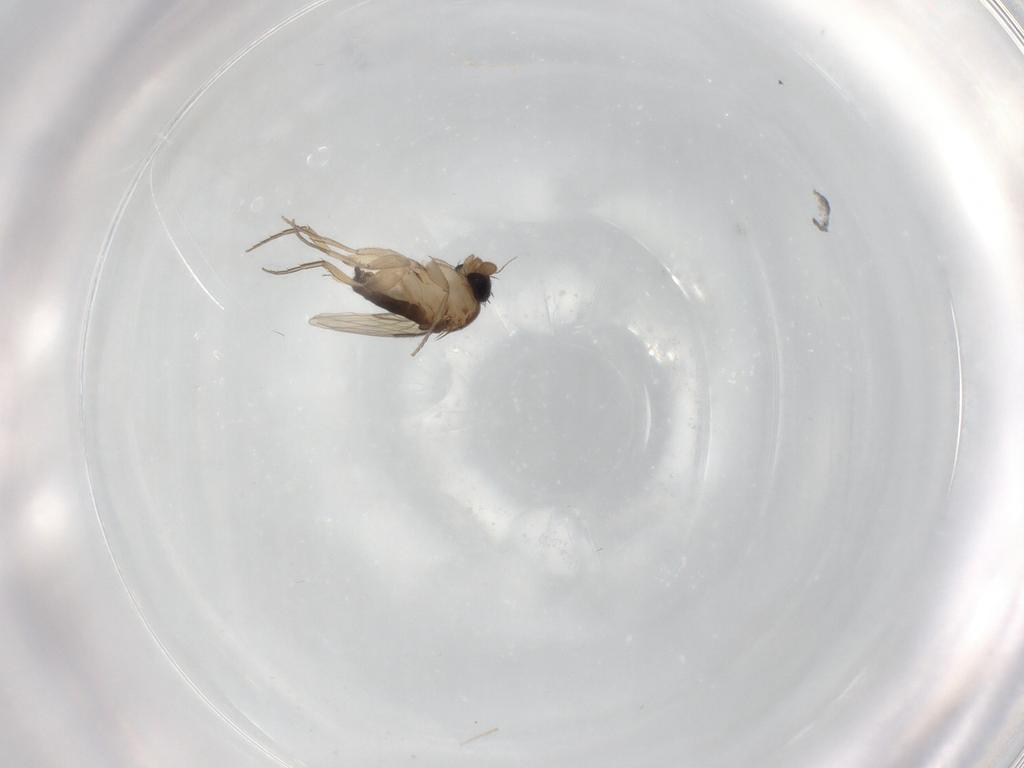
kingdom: Animalia
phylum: Arthropoda
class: Insecta
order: Diptera
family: Phoridae
